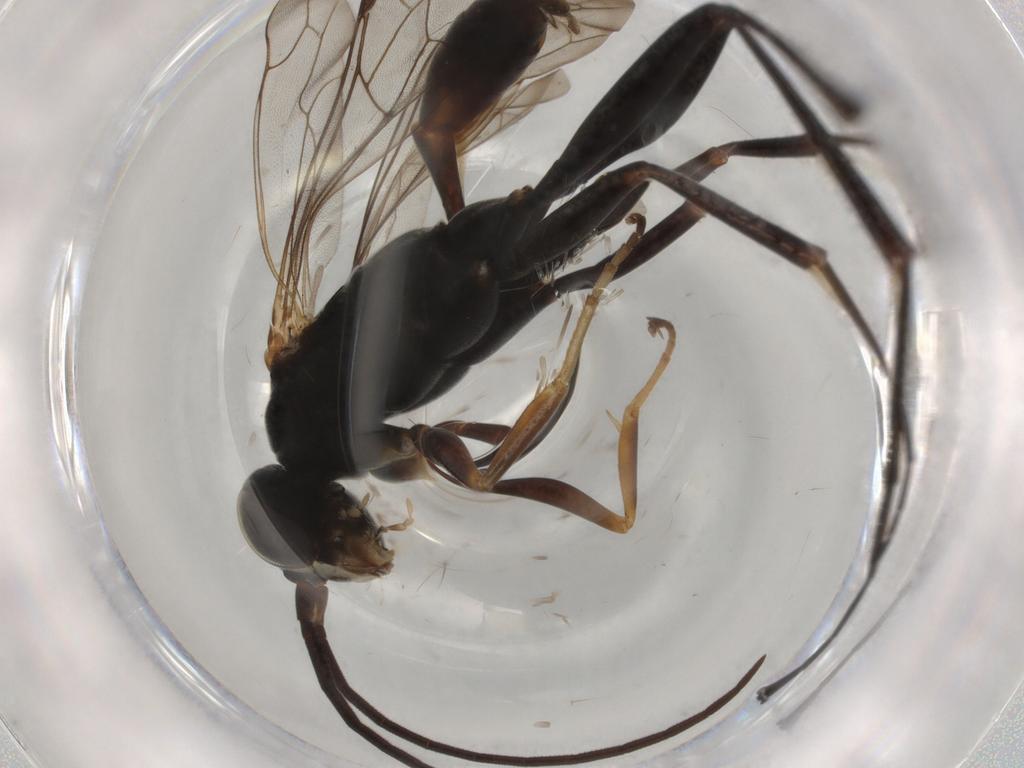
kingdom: Animalia
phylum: Arthropoda
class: Insecta
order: Hymenoptera
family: Pompilidae
